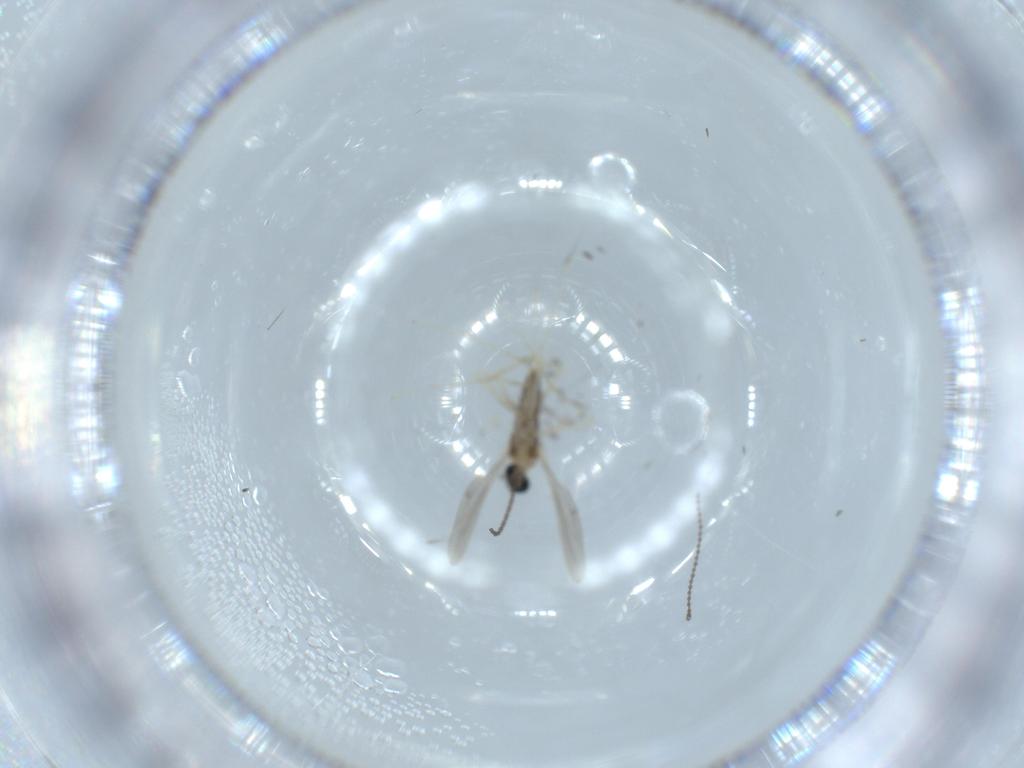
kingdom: Animalia
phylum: Arthropoda
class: Insecta
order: Diptera
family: Cecidomyiidae
